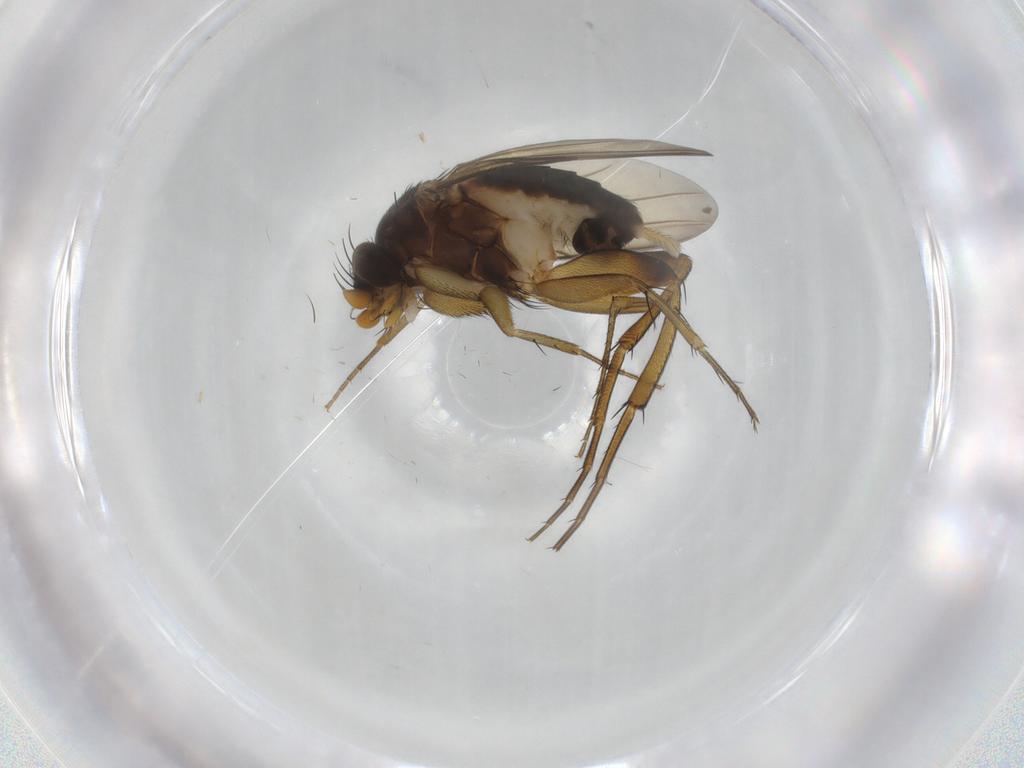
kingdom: Animalia
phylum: Arthropoda
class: Insecta
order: Diptera
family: Phoridae
